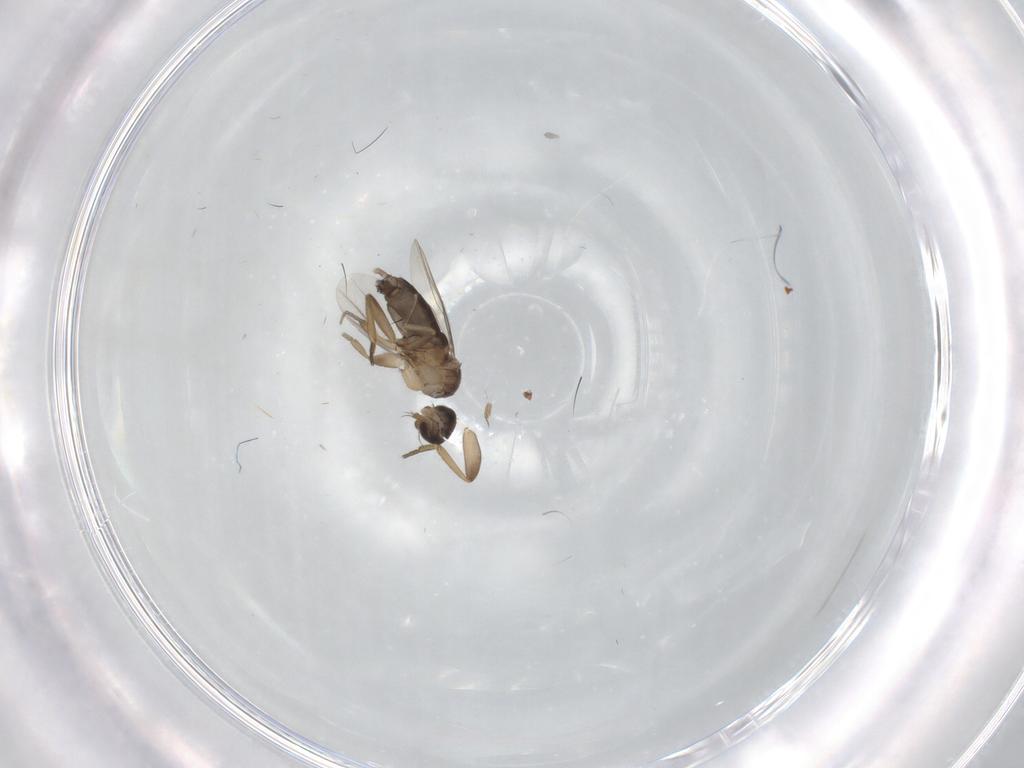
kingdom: Animalia
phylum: Arthropoda
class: Insecta
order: Diptera
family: Phoridae
